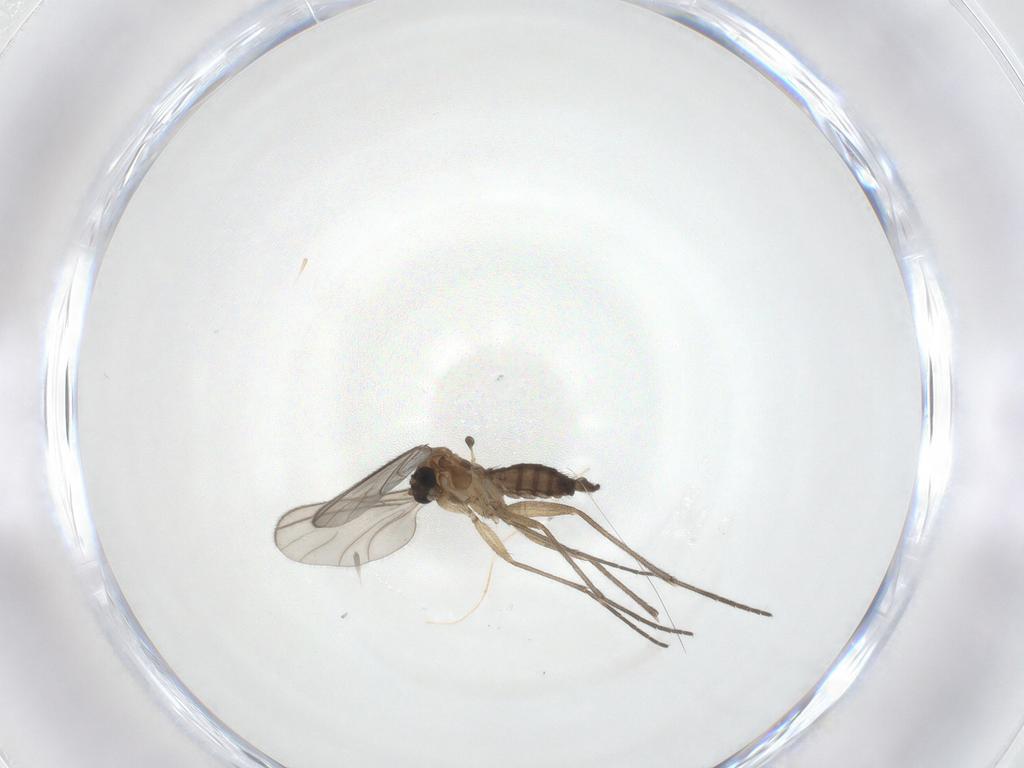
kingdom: Animalia
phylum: Arthropoda
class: Insecta
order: Diptera
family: Sciaridae
